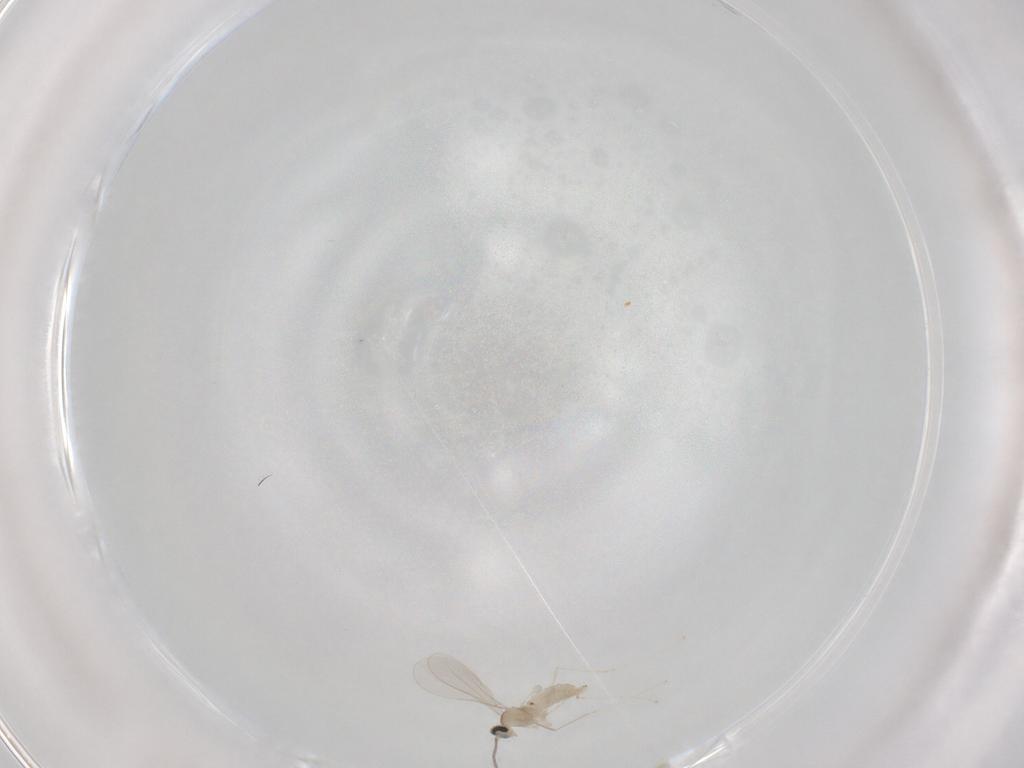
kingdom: Animalia
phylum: Arthropoda
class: Insecta
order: Diptera
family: Cecidomyiidae
